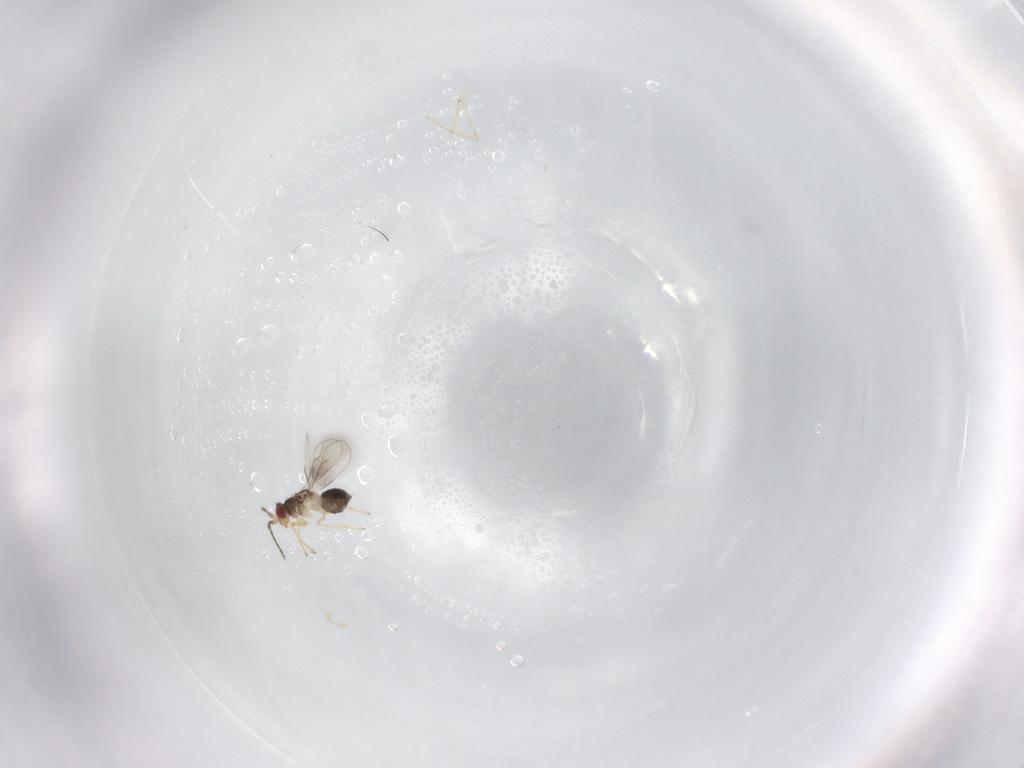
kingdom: Animalia
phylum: Arthropoda
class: Insecta
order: Hymenoptera
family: Eulophidae
